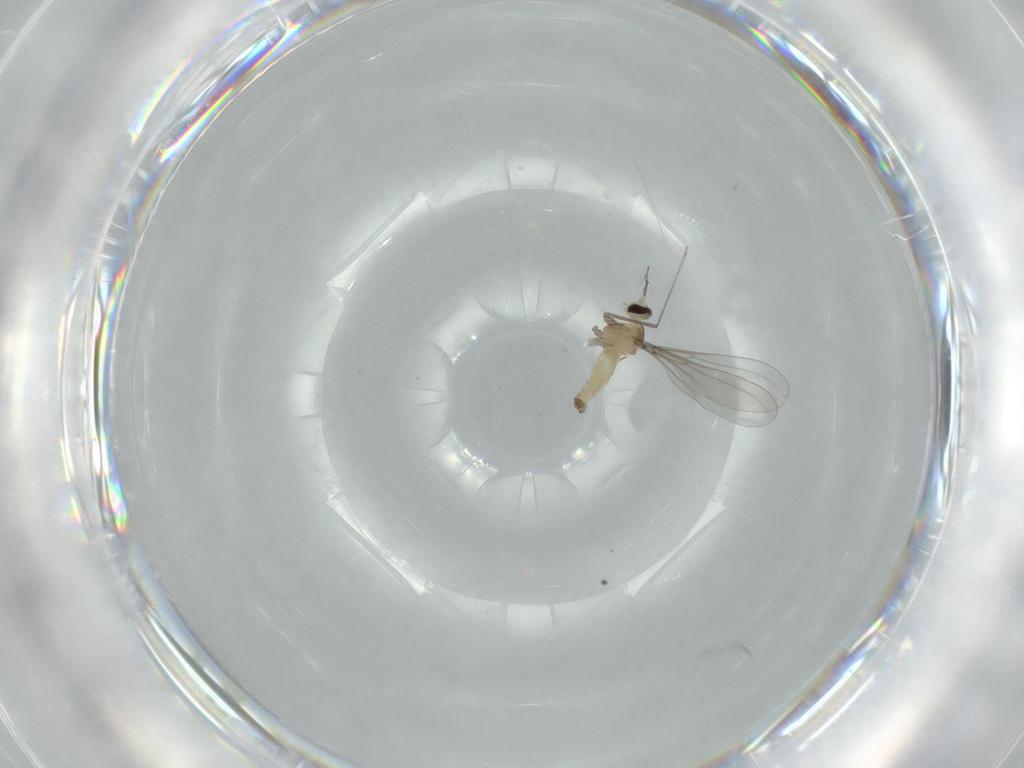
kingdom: Animalia
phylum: Arthropoda
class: Insecta
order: Diptera
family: Cecidomyiidae
